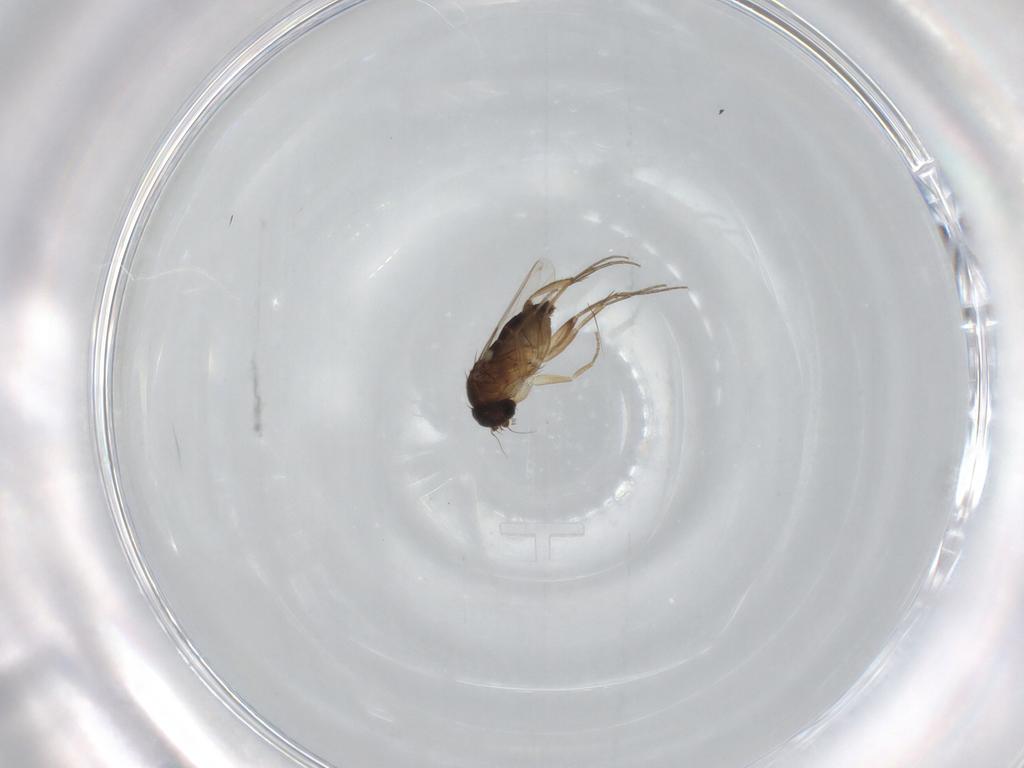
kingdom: Animalia
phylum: Arthropoda
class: Insecta
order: Diptera
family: Phoridae
